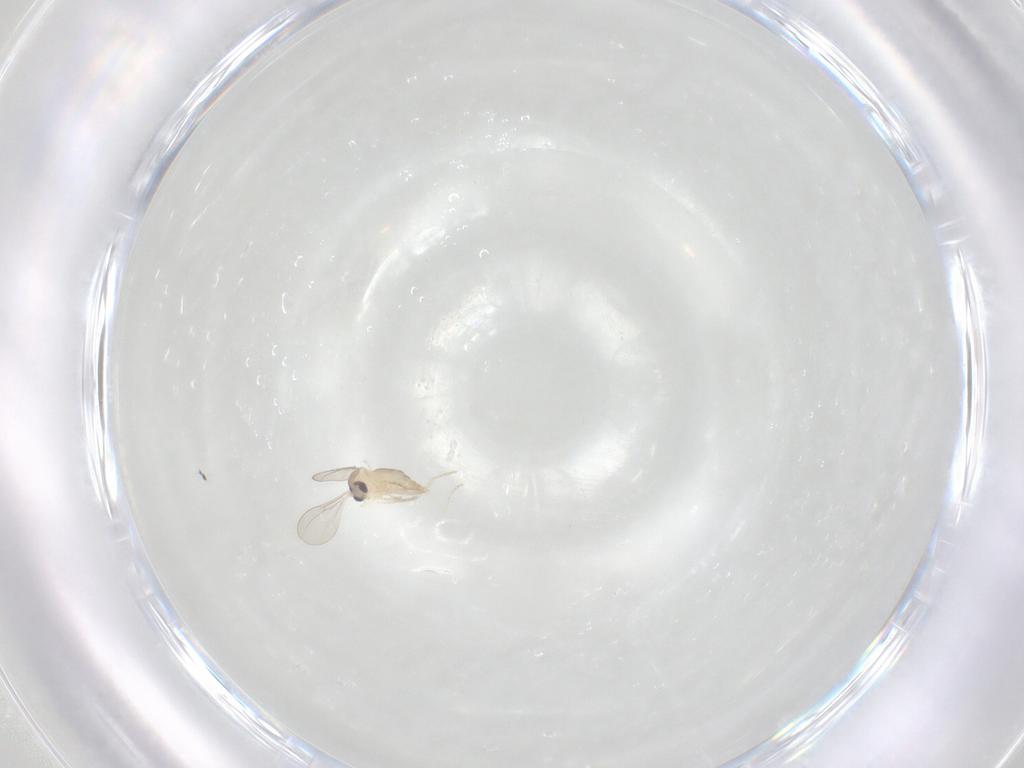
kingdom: Animalia
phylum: Arthropoda
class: Insecta
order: Diptera
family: Cecidomyiidae
